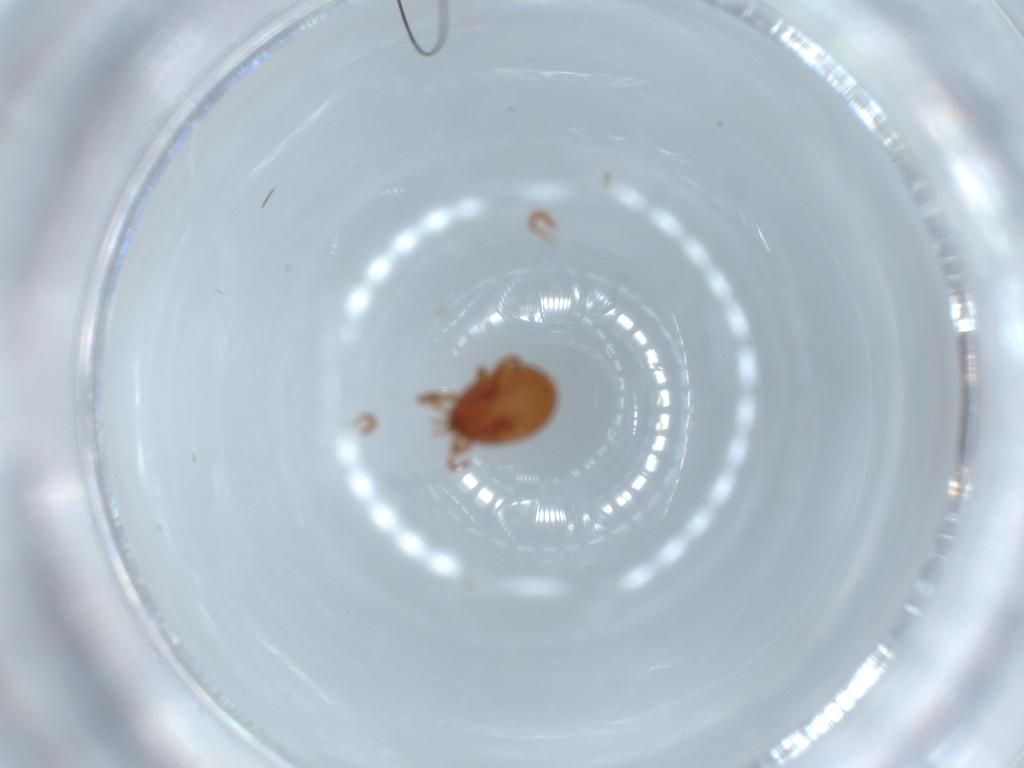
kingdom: Animalia
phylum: Arthropoda
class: Arachnida
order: Mesostigmata
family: Parasitidae
